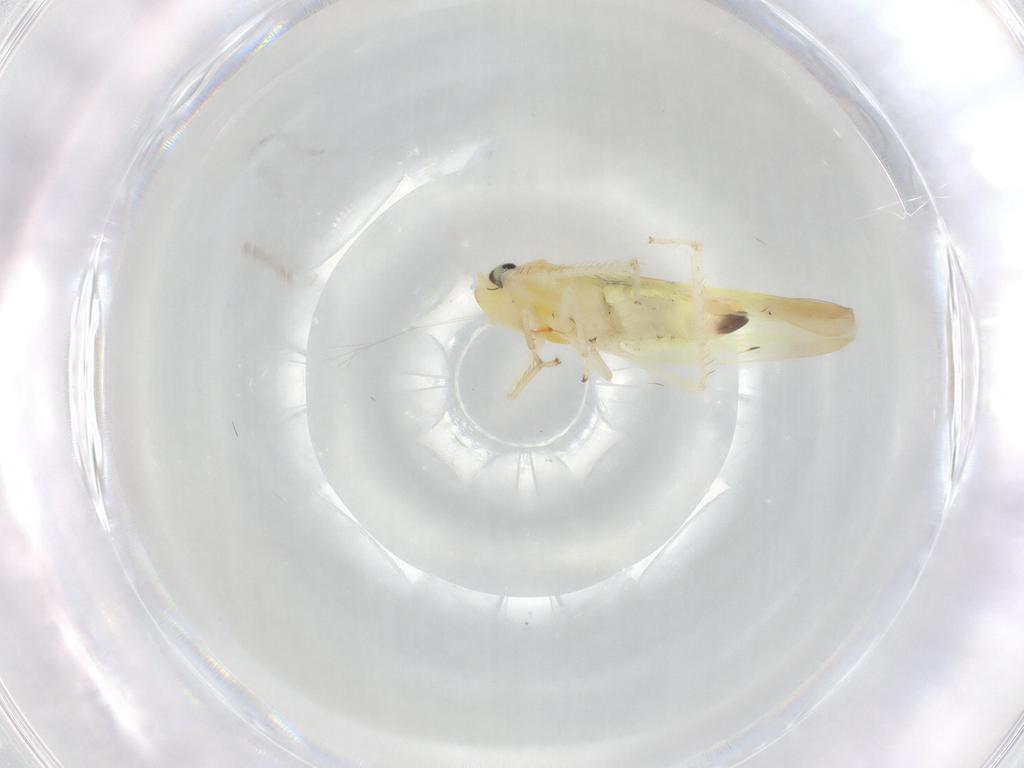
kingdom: Animalia
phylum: Arthropoda
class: Insecta
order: Hemiptera
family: Cicadellidae
